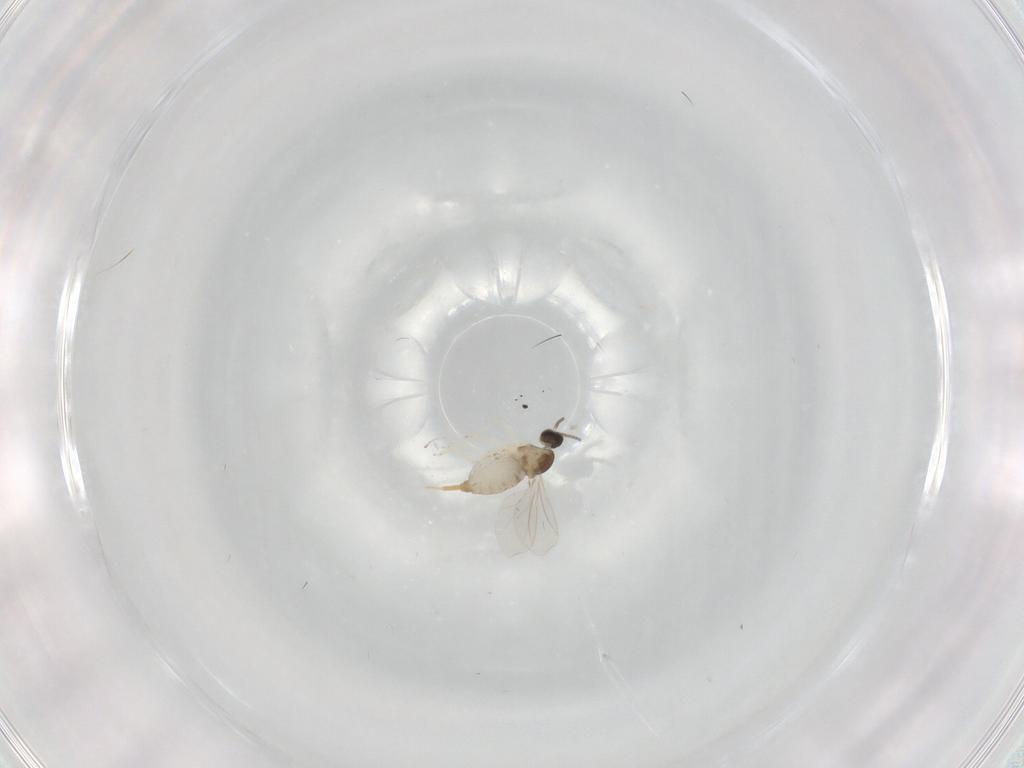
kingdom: Animalia
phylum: Arthropoda
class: Insecta
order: Diptera
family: Cecidomyiidae
